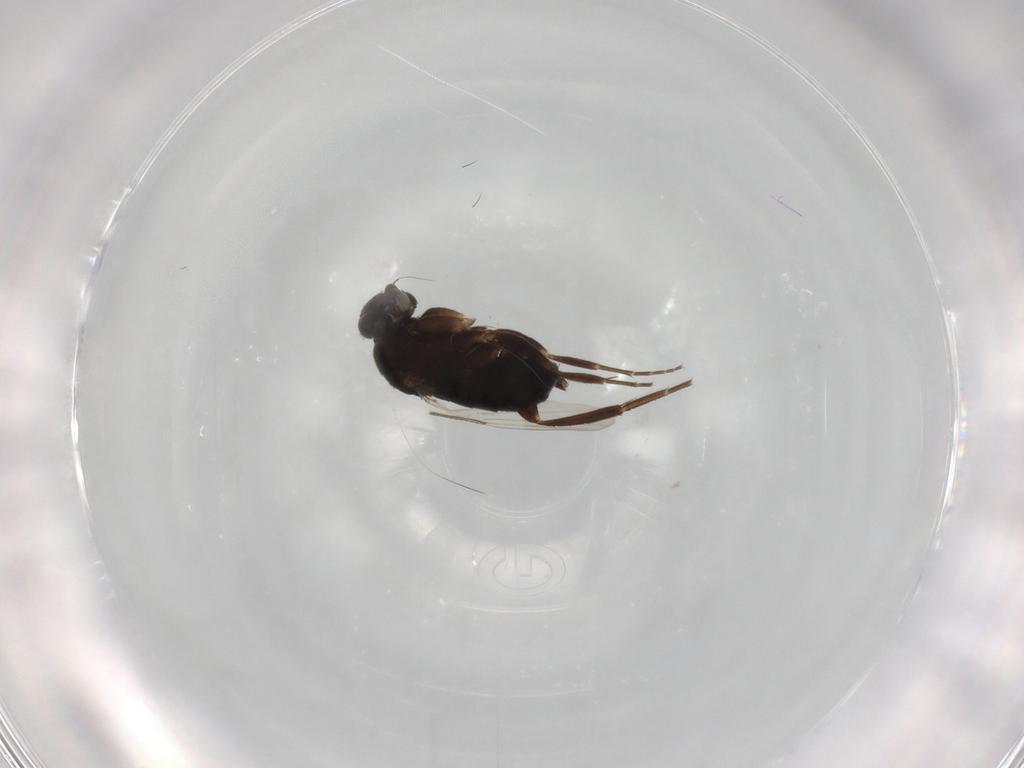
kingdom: Animalia
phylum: Arthropoda
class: Insecta
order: Diptera
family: Phoridae
